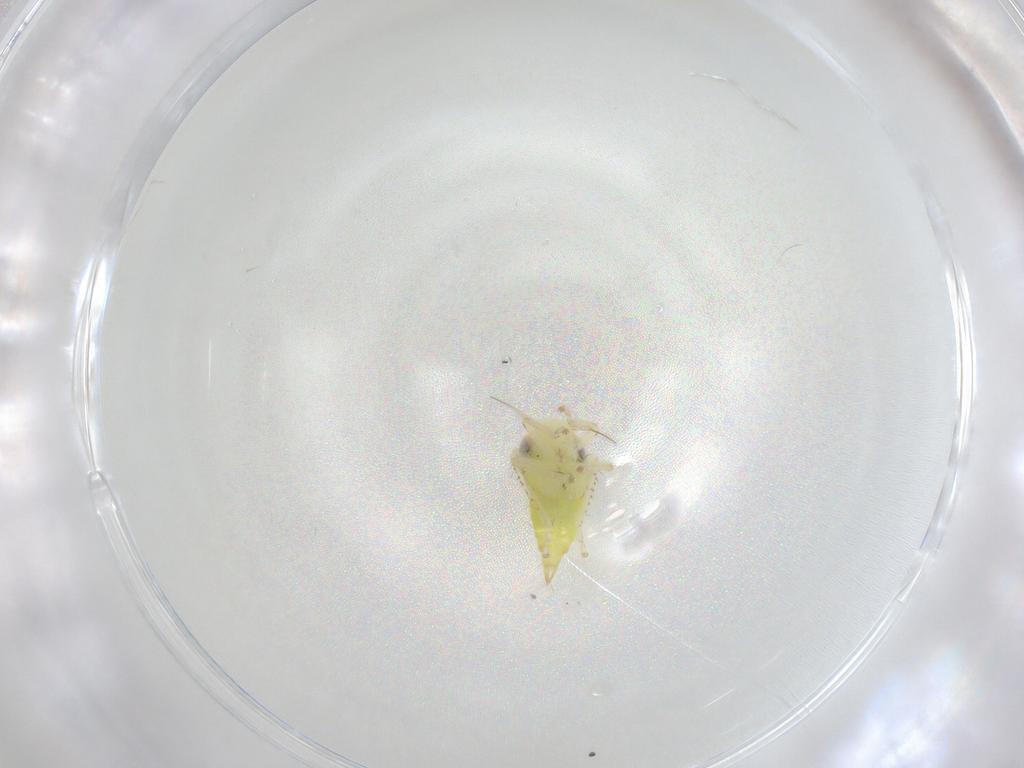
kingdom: Animalia
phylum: Arthropoda
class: Insecta
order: Hemiptera
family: Cicadellidae
